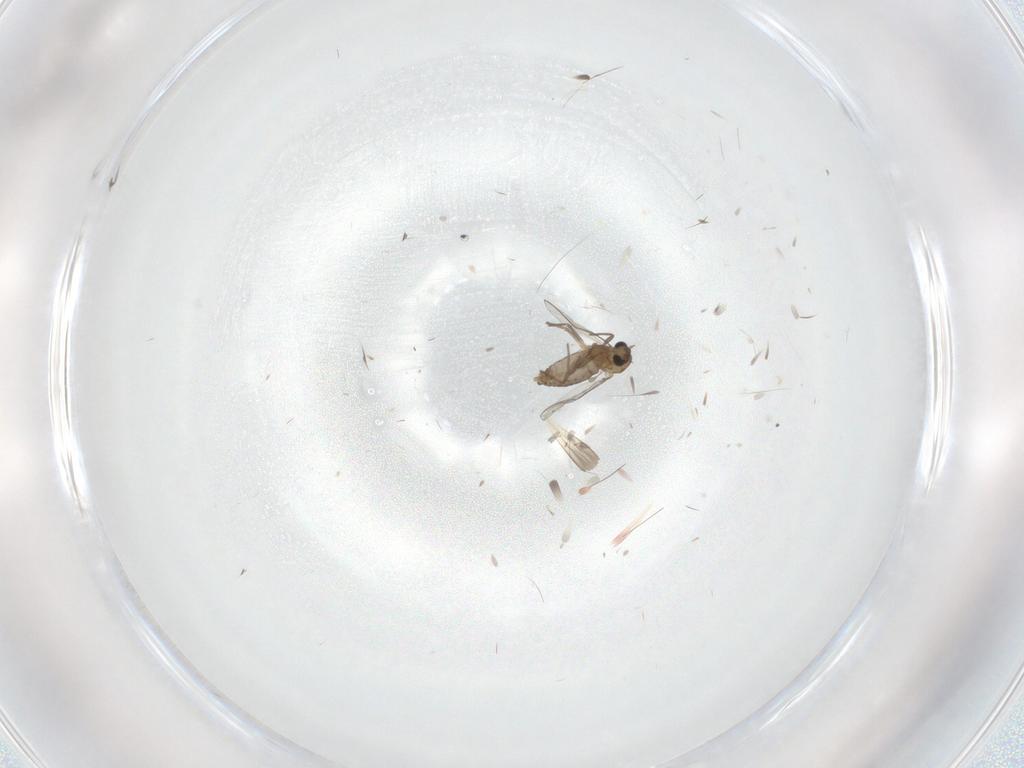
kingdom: Animalia
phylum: Arthropoda
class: Insecta
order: Diptera
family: Chironomidae
